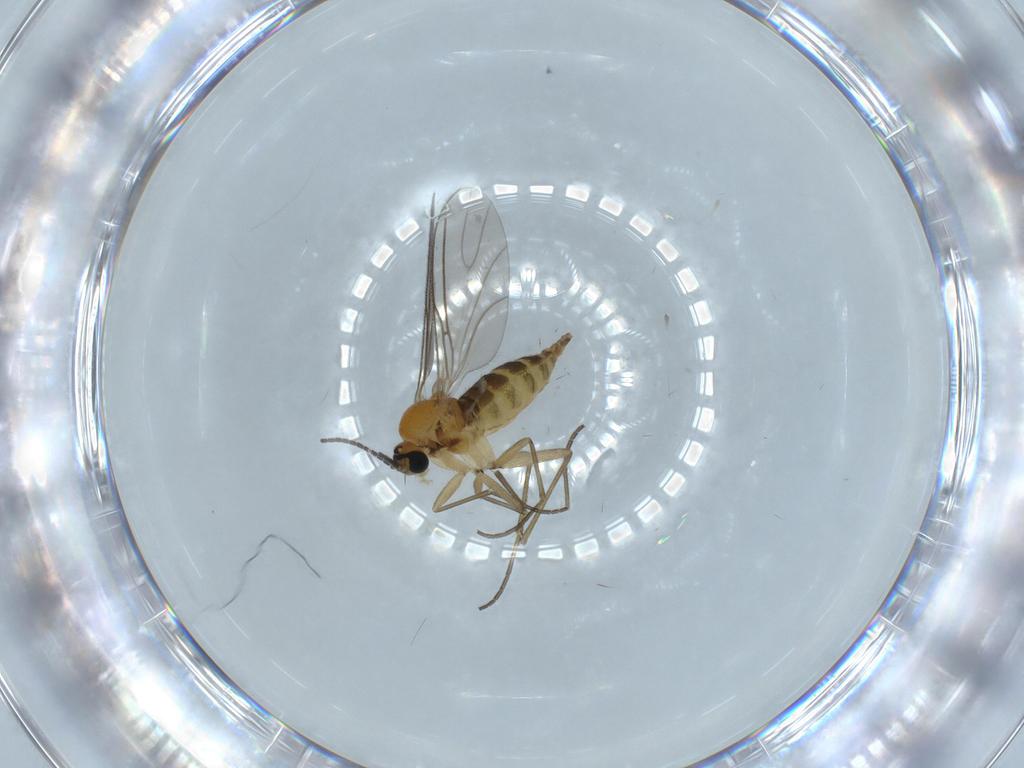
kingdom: Animalia
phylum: Arthropoda
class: Insecta
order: Diptera
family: Sciaridae
